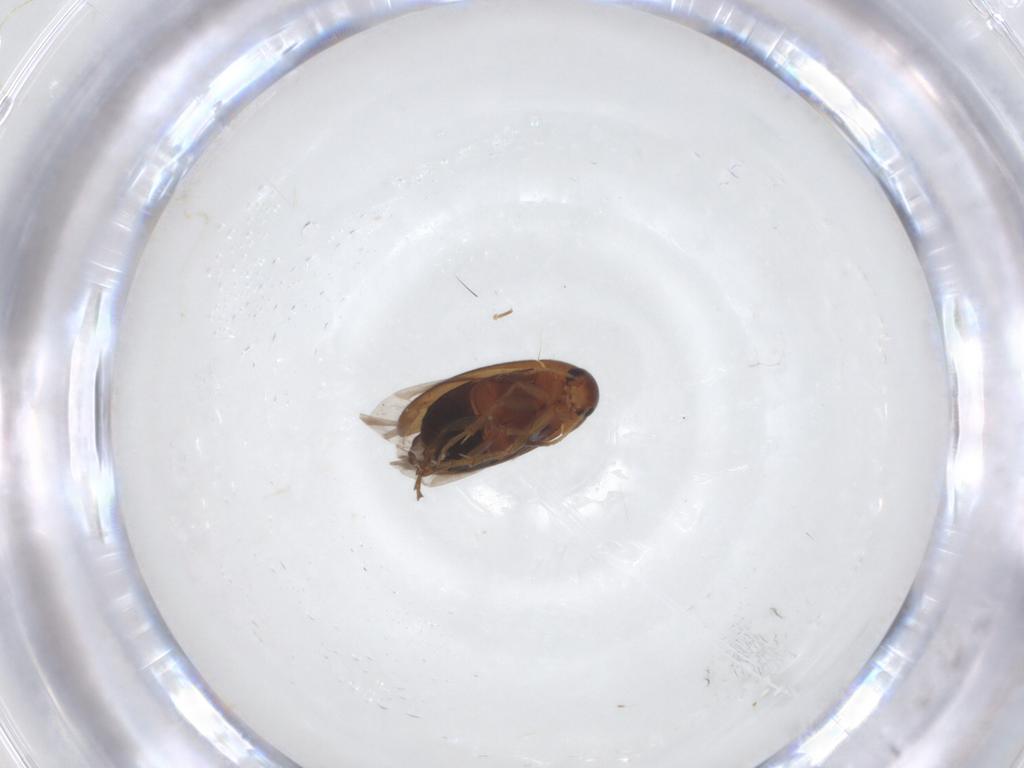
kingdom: Animalia
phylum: Arthropoda
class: Insecta
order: Coleoptera
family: Scraptiidae
